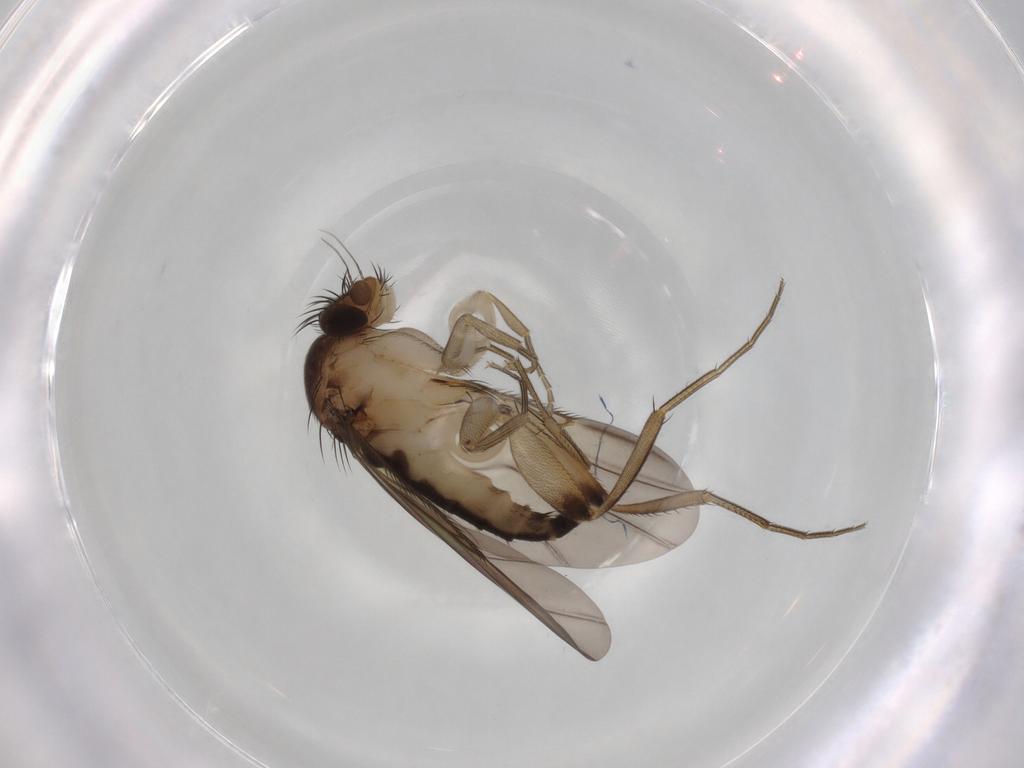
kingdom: Animalia
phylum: Arthropoda
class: Insecta
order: Diptera
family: Phoridae
